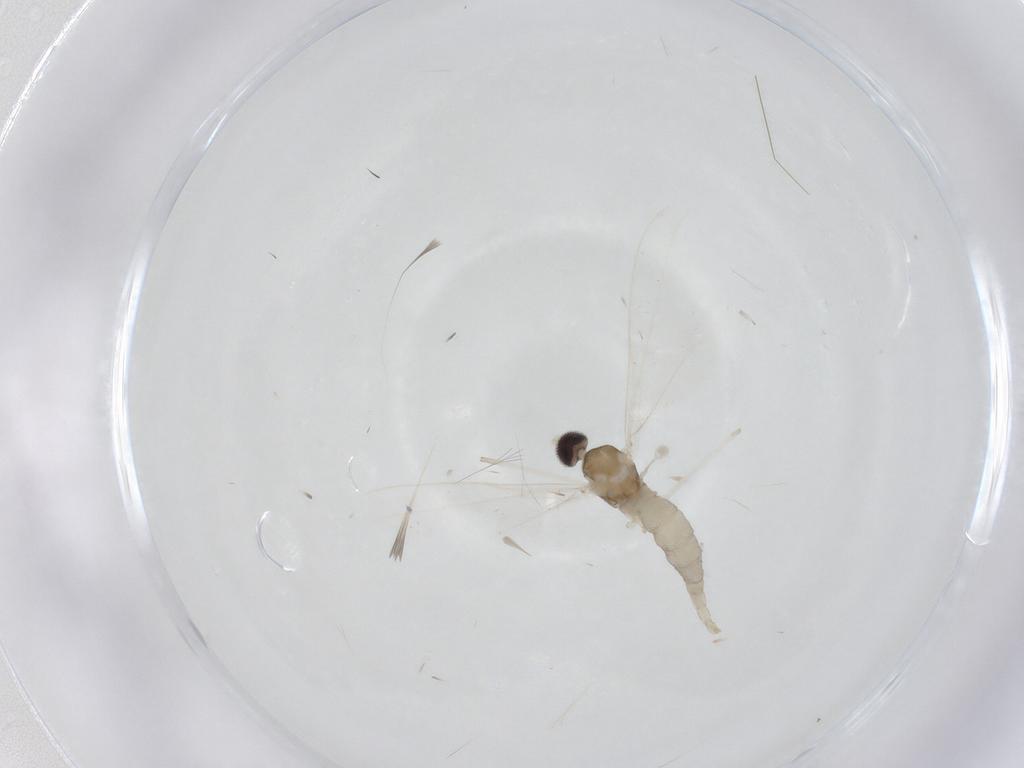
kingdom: Animalia
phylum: Arthropoda
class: Insecta
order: Diptera
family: Cecidomyiidae
